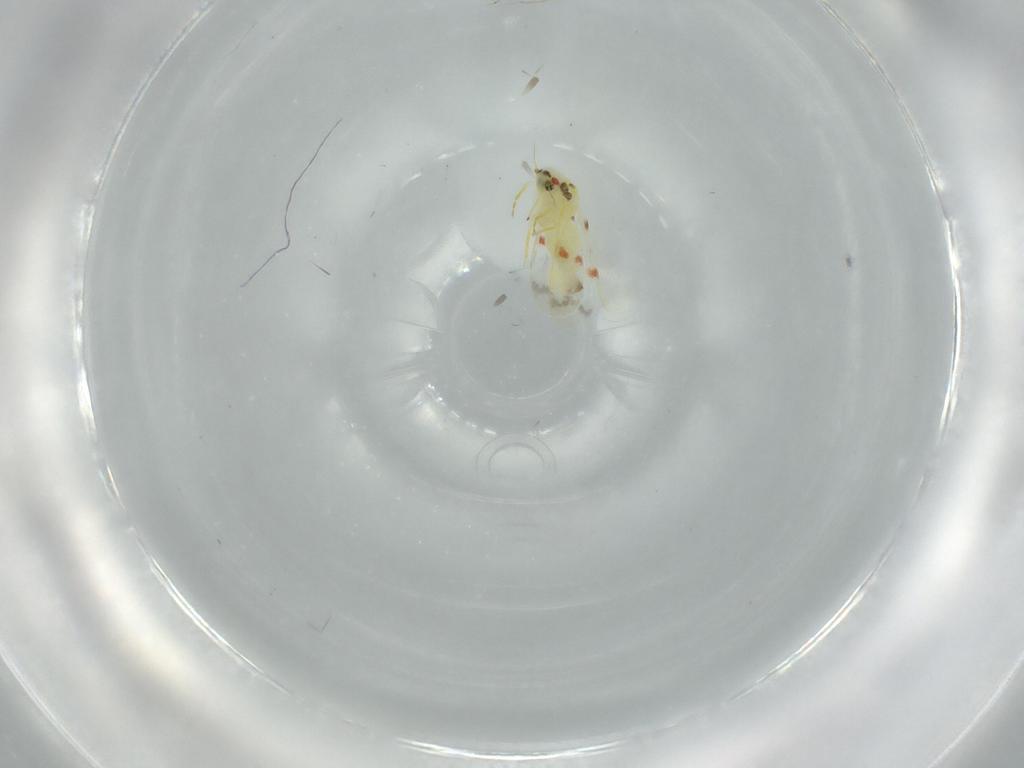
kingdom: Animalia
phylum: Arthropoda
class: Insecta
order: Hemiptera
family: Aleyrodidae
